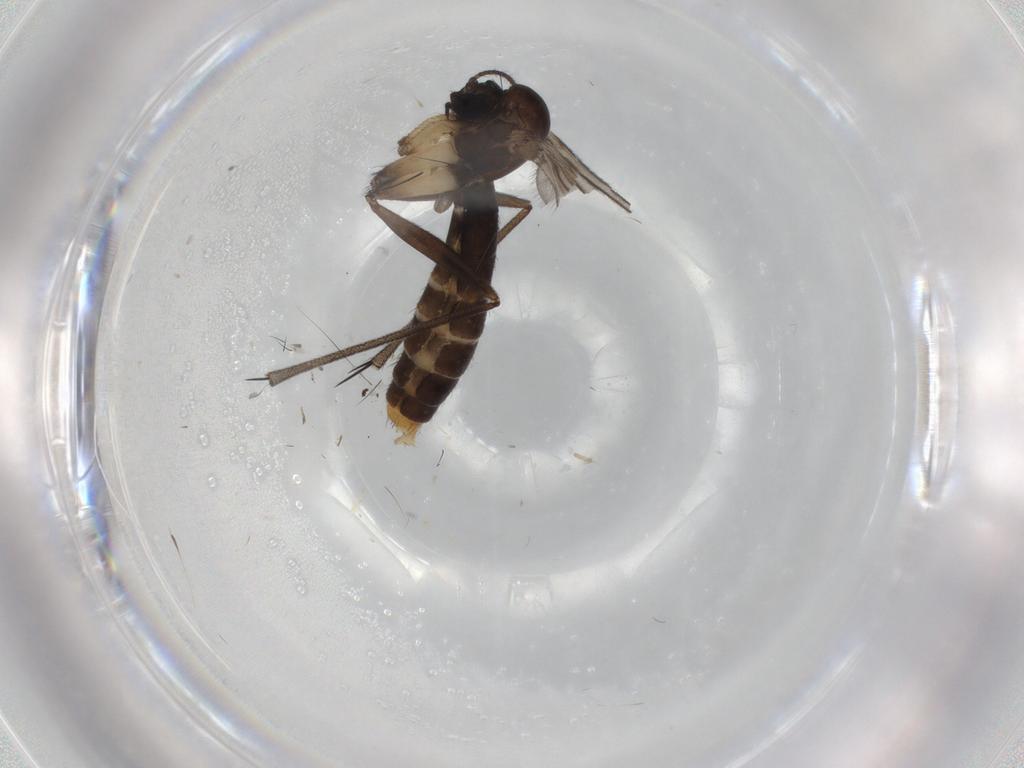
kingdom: Animalia
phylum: Arthropoda
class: Insecta
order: Diptera
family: Ditomyiidae
